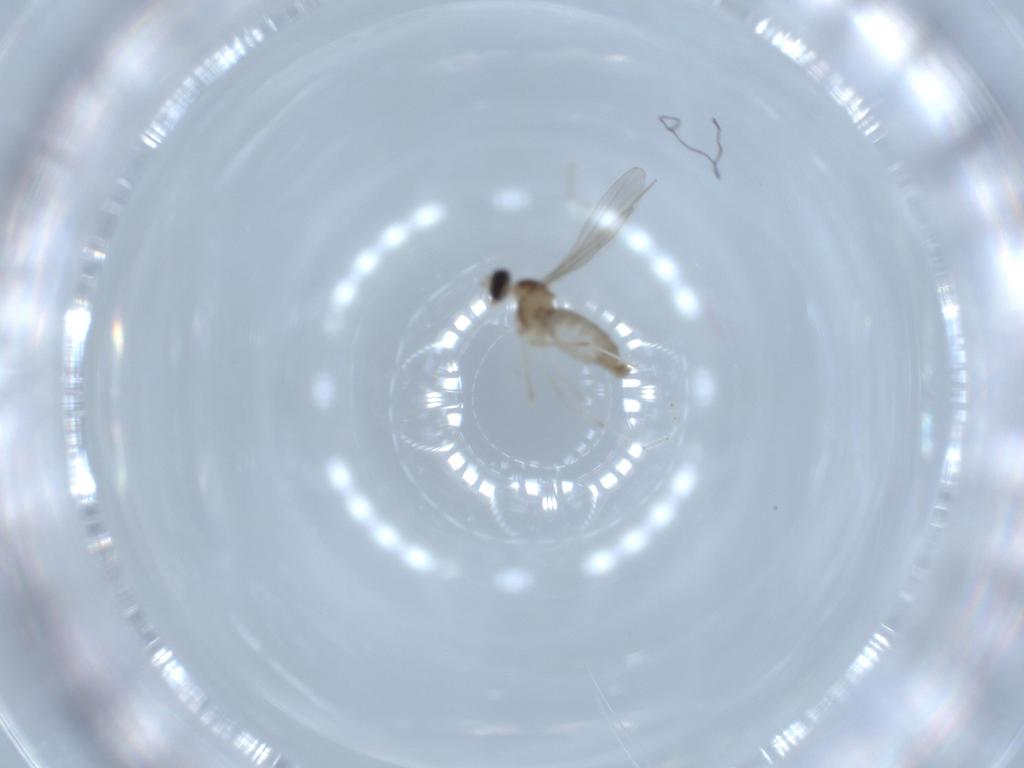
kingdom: Animalia
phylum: Arthropoda
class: Insecta
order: Diptera
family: Cecidomyiidae
